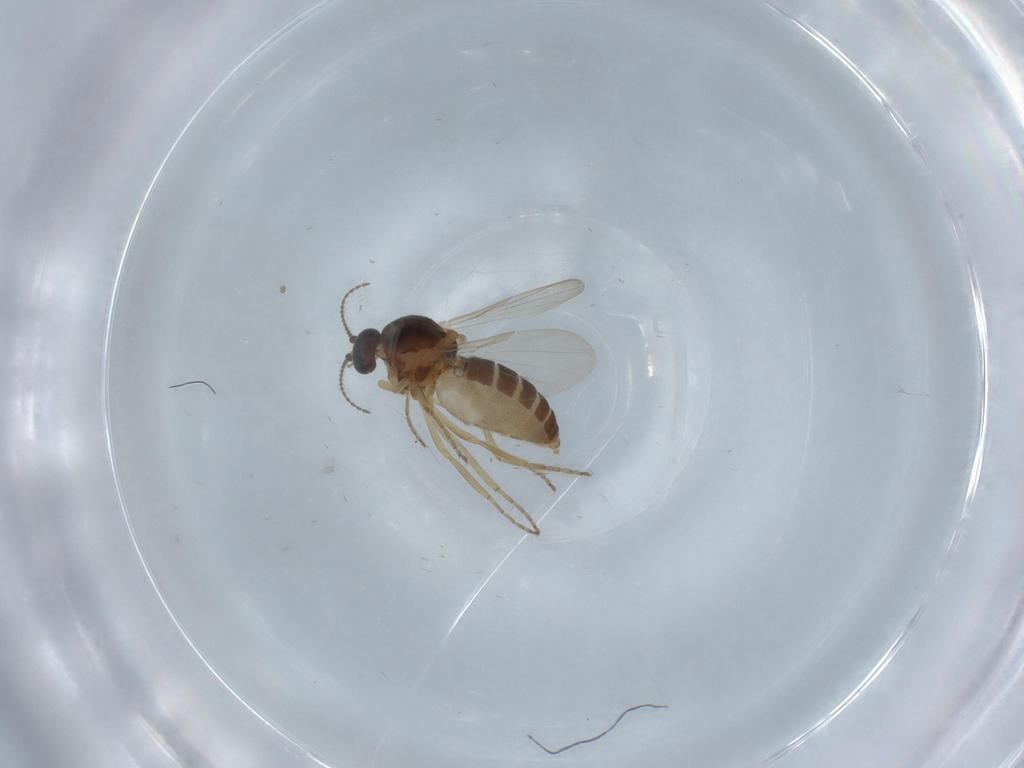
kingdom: Animalia
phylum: Arthropoda
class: Insecta
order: Diptera
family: Ceratopogonidae
